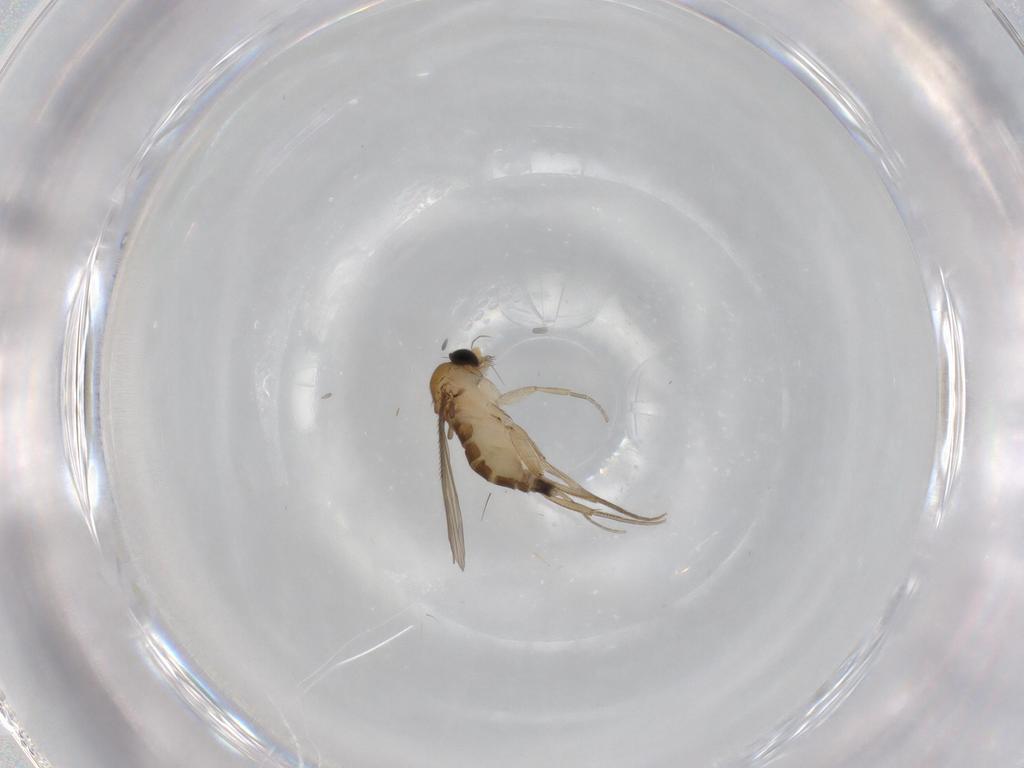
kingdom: Animalia
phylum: Arthropoda
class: Insecta
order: Diptera
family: Phoridae
